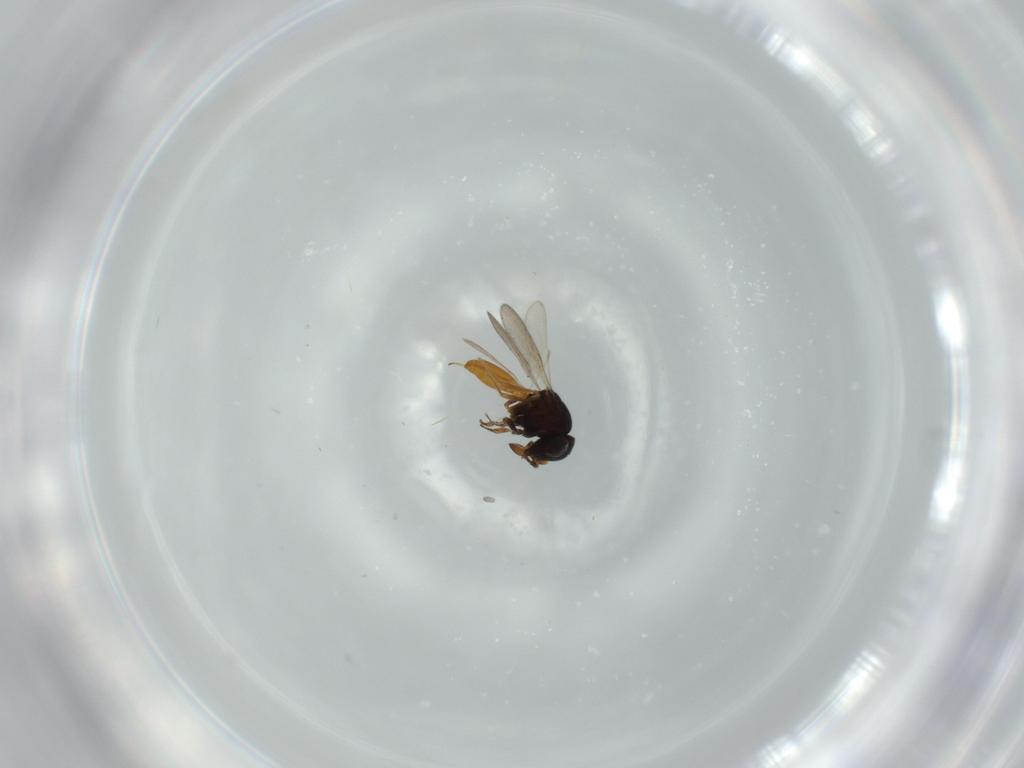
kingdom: Animalia
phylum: Arthropoda
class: Insecta
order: Hymenoptera
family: Scelionidae
